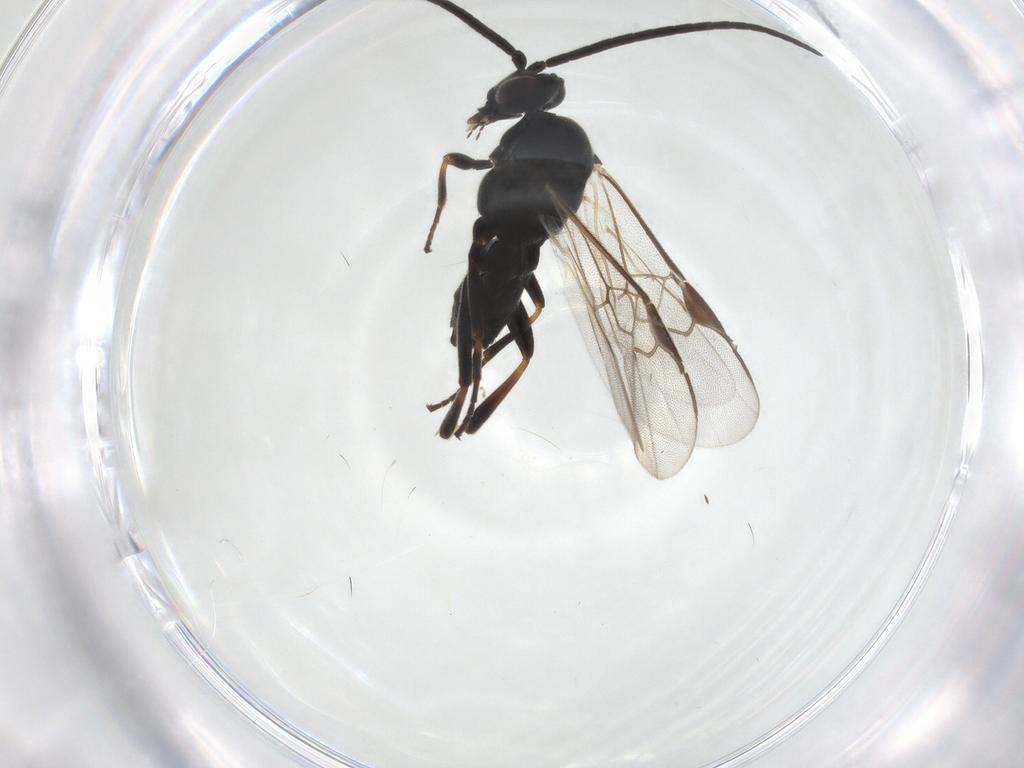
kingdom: Animalia
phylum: Arthropoda
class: Insecta
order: Hymenoptera
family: Braconidae
